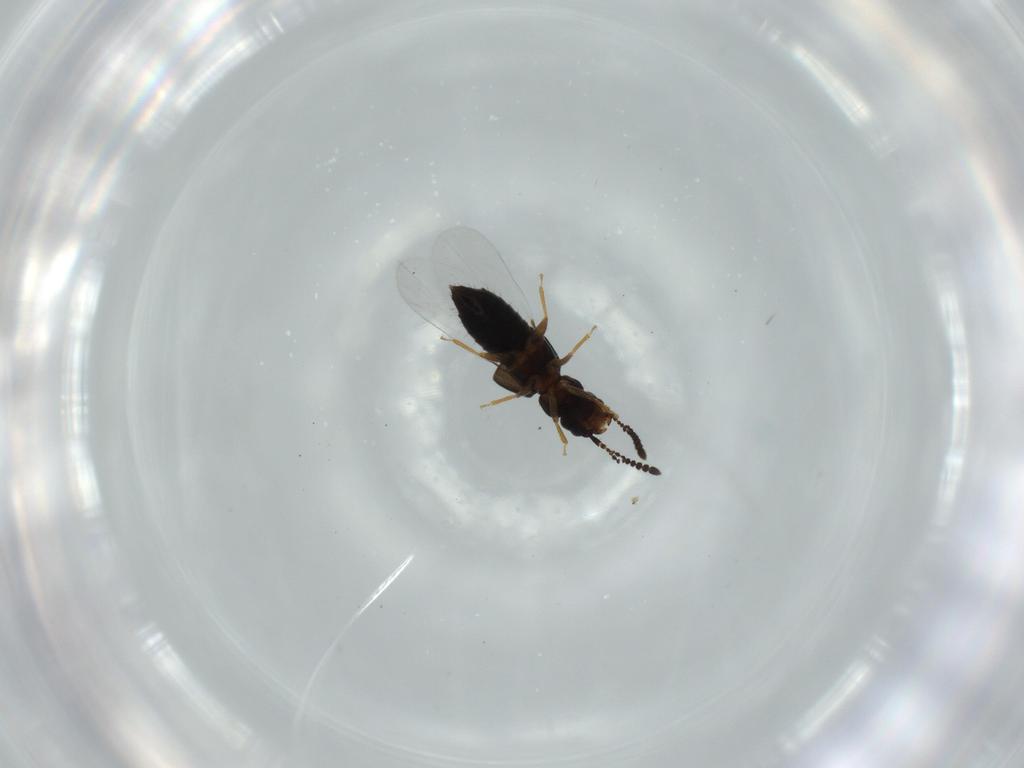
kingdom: Animalia
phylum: Arthropoda
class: Insecta
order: Coleoptera
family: Staphylinidae
